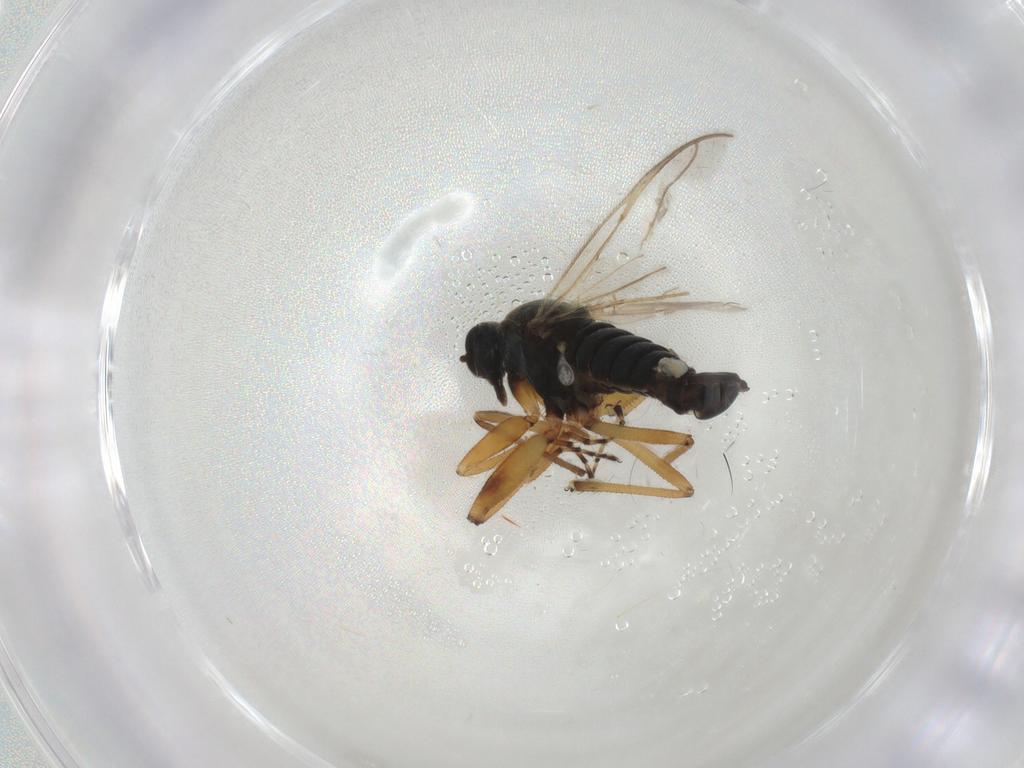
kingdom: Animalia
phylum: Arthropoda
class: Insecta
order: Diptera
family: Hybotidae
